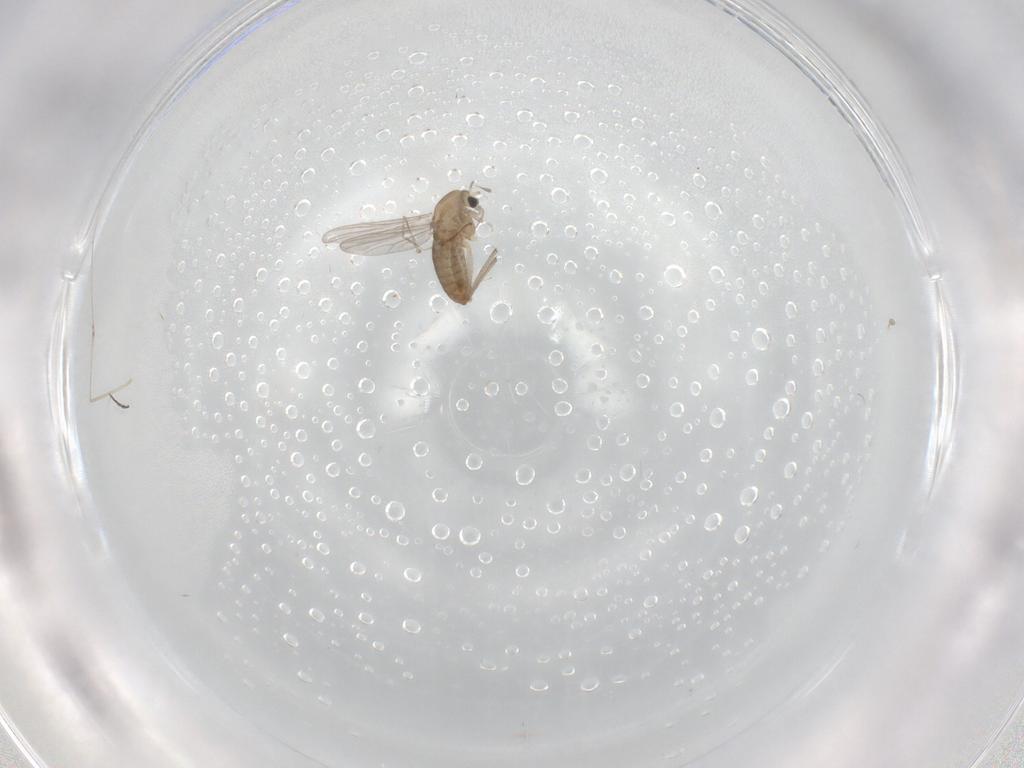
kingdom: Animalia
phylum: Arthropoda
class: Insecta
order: Diptera
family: Chironomidae
